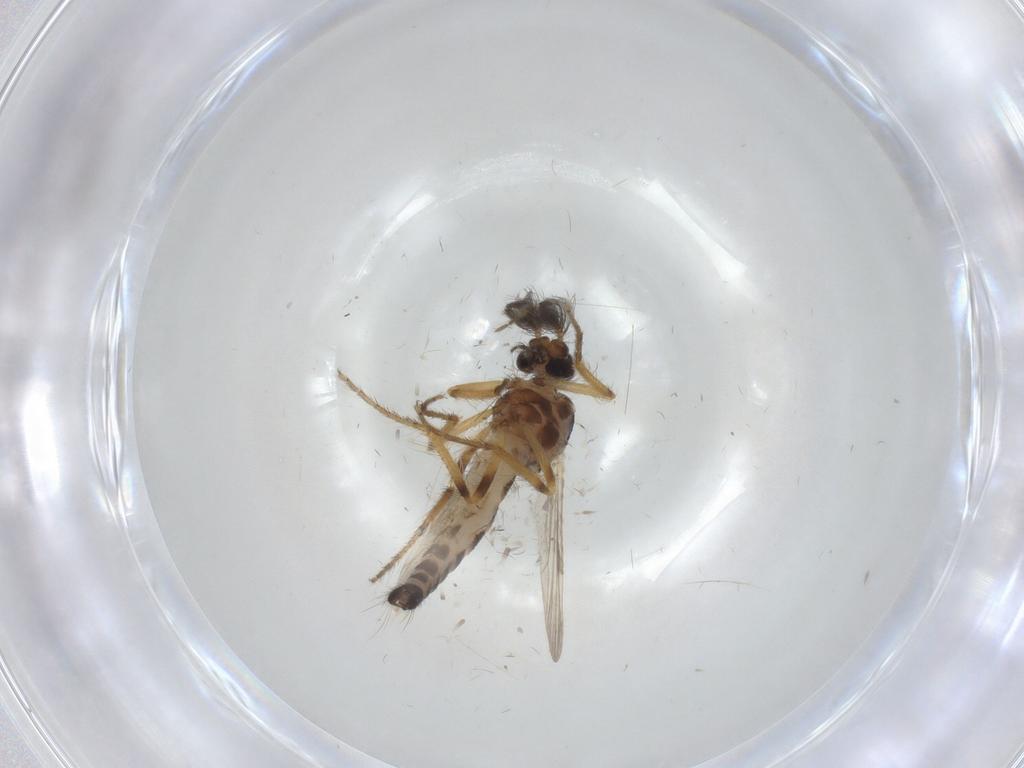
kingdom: Animalia
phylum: Arthropoda
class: Insecta
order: Diptera
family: Ceratopogonidae
